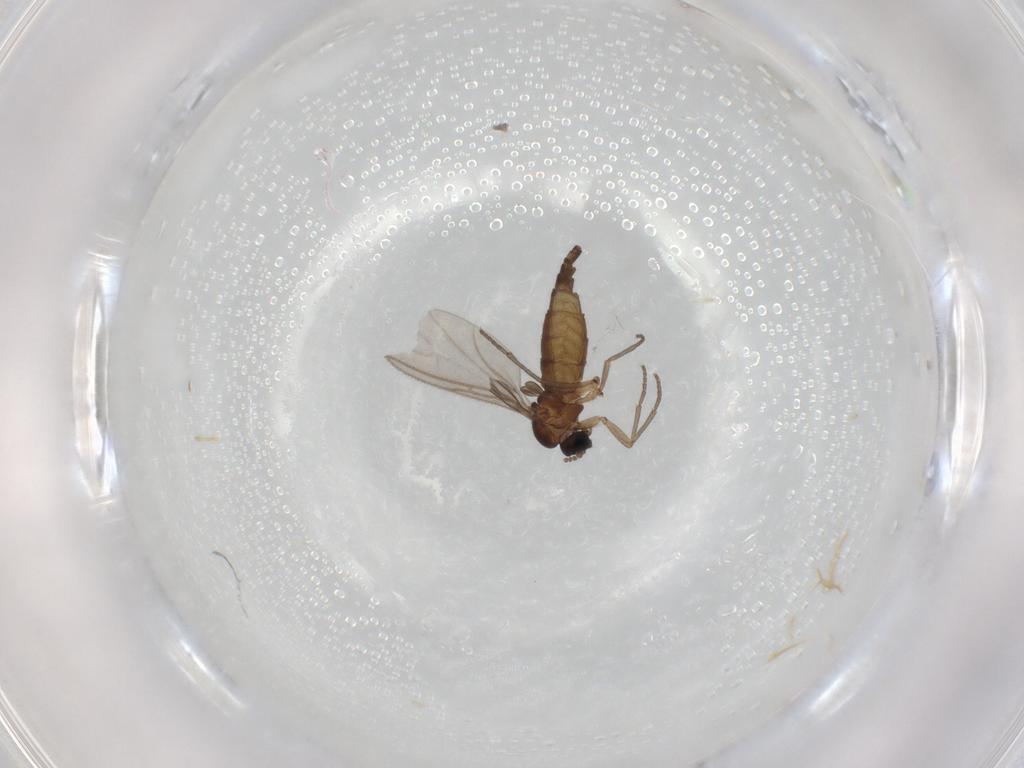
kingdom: Animalia
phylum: Arthropoda
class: Insecta
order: Diptera
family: Sciaridae
